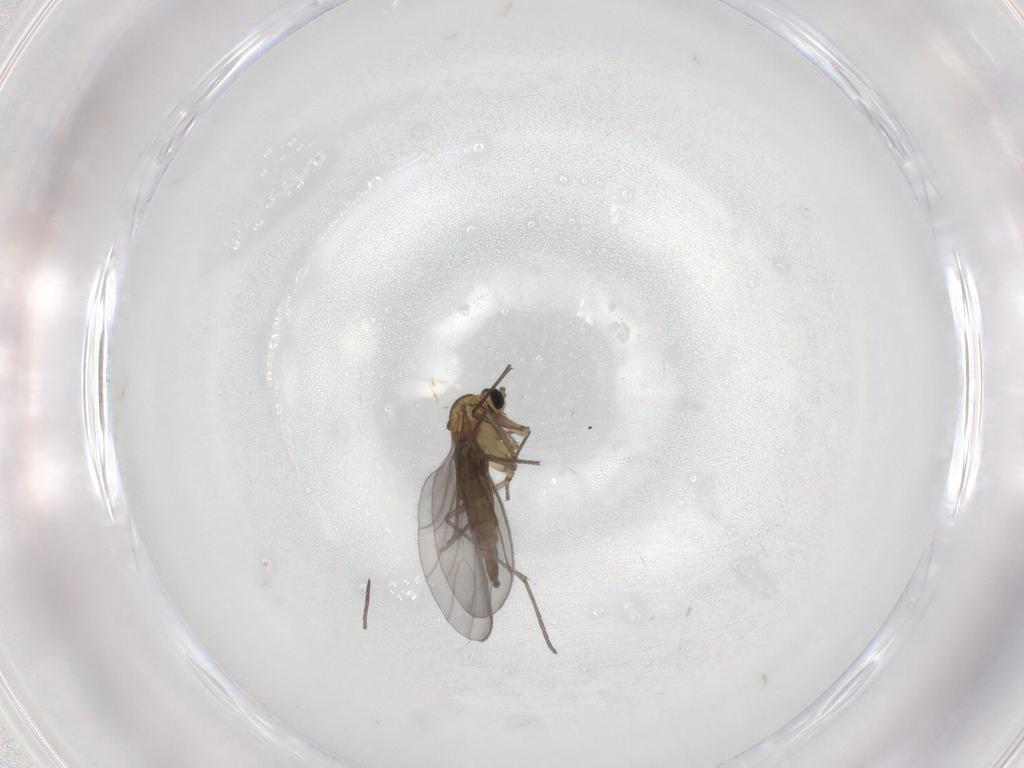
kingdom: Animalia
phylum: Arthropoda
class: Insecta
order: Diptera
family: Sciaridae
